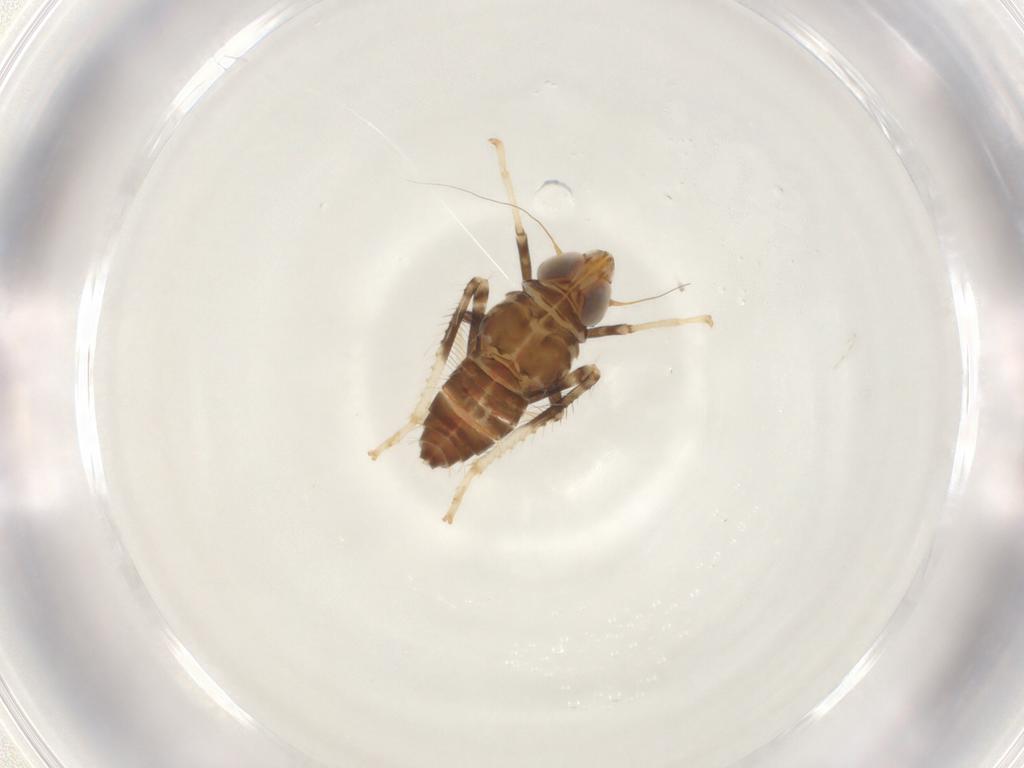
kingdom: Animalia
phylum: Arthropoda
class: Insecta
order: Hemiptera
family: Cicadellidae
